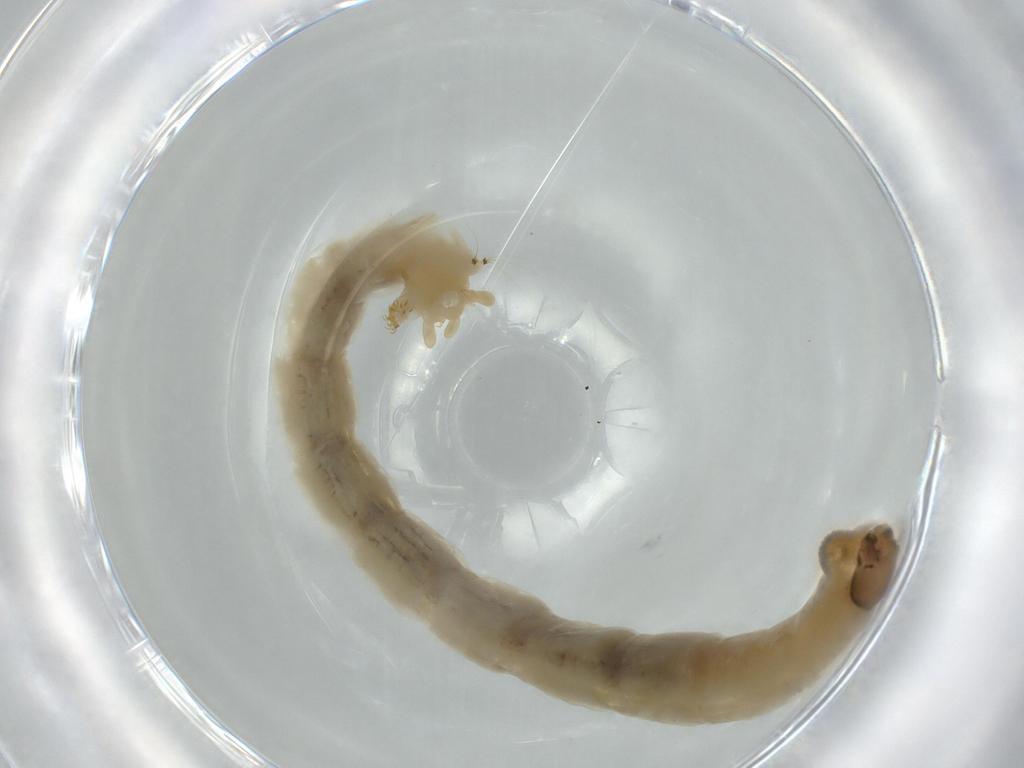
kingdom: Animalia
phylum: Arthropoda
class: Insecta
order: Diptera
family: Chironomidae
